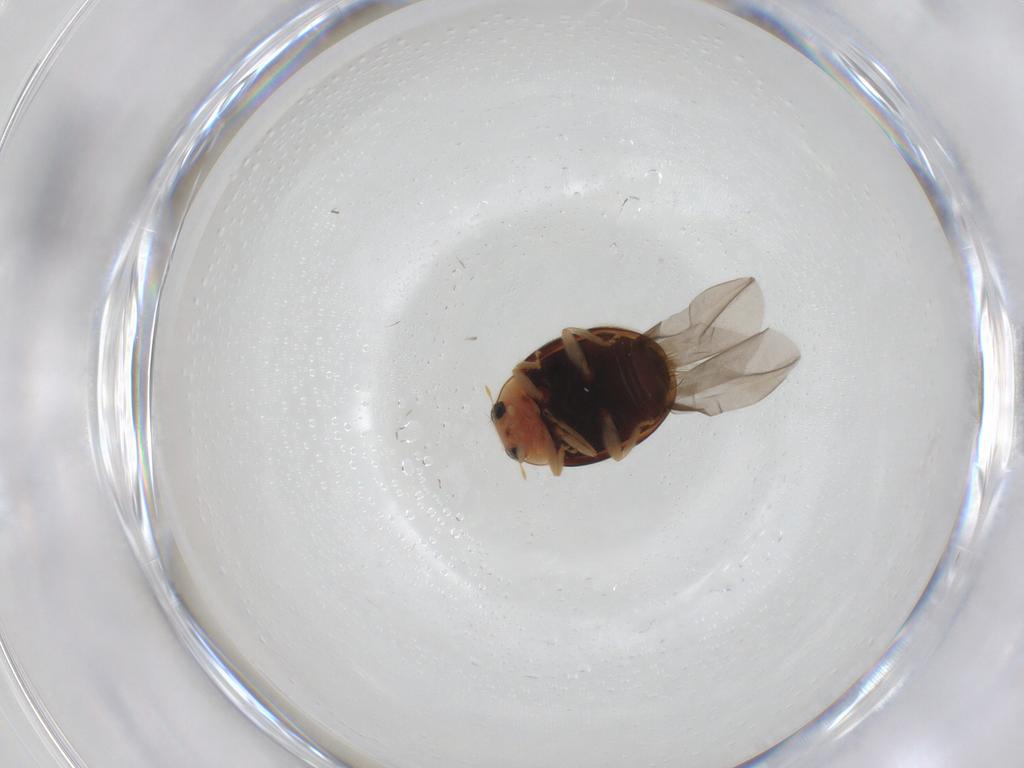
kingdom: Animalia
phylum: Arthropoda
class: Insecta
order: Coleoptera
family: Coccinellidae
